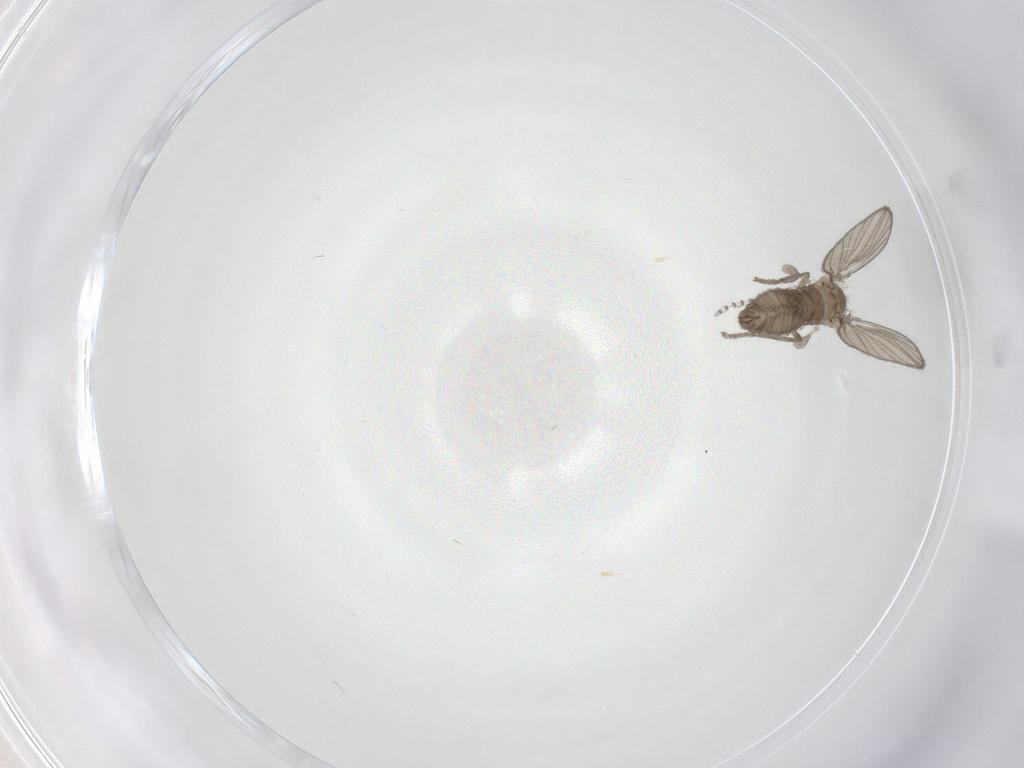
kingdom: Animalia
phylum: Arthropoda
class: Insecta
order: Diptera
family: Psychodidae
